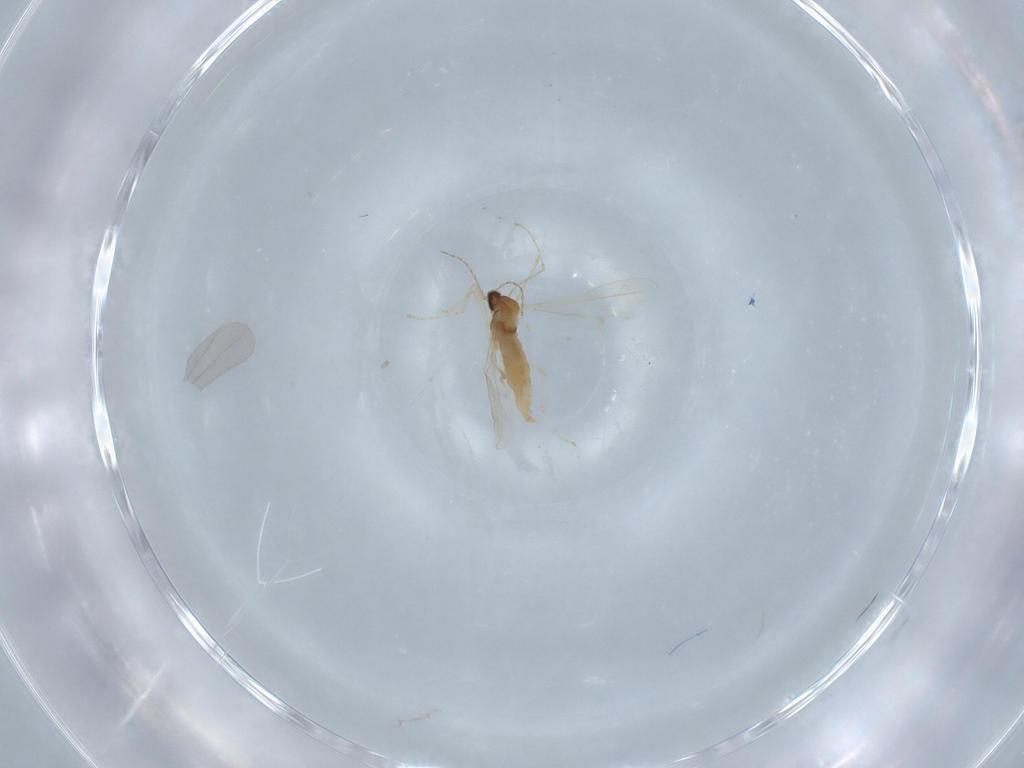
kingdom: Animalia
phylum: Arthropoda
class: Insecta
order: Diptera
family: Cecidomyiidae
